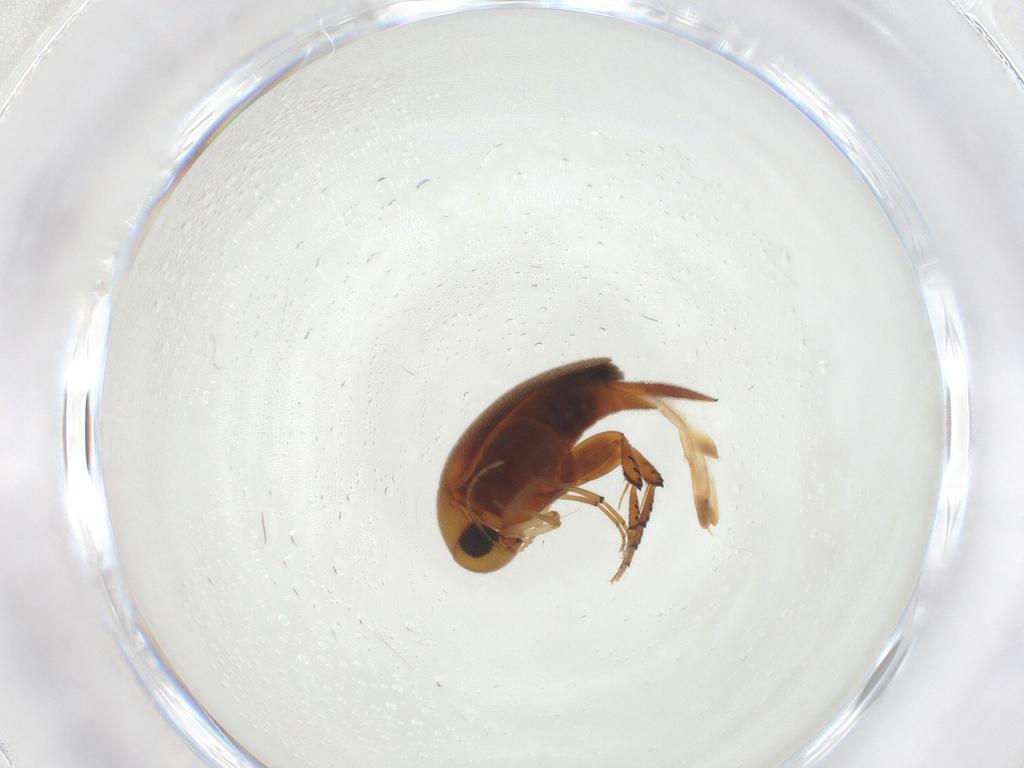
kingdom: Animalia
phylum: Arthropoda
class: Insecta
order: Coleoptera
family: Mordellidae
